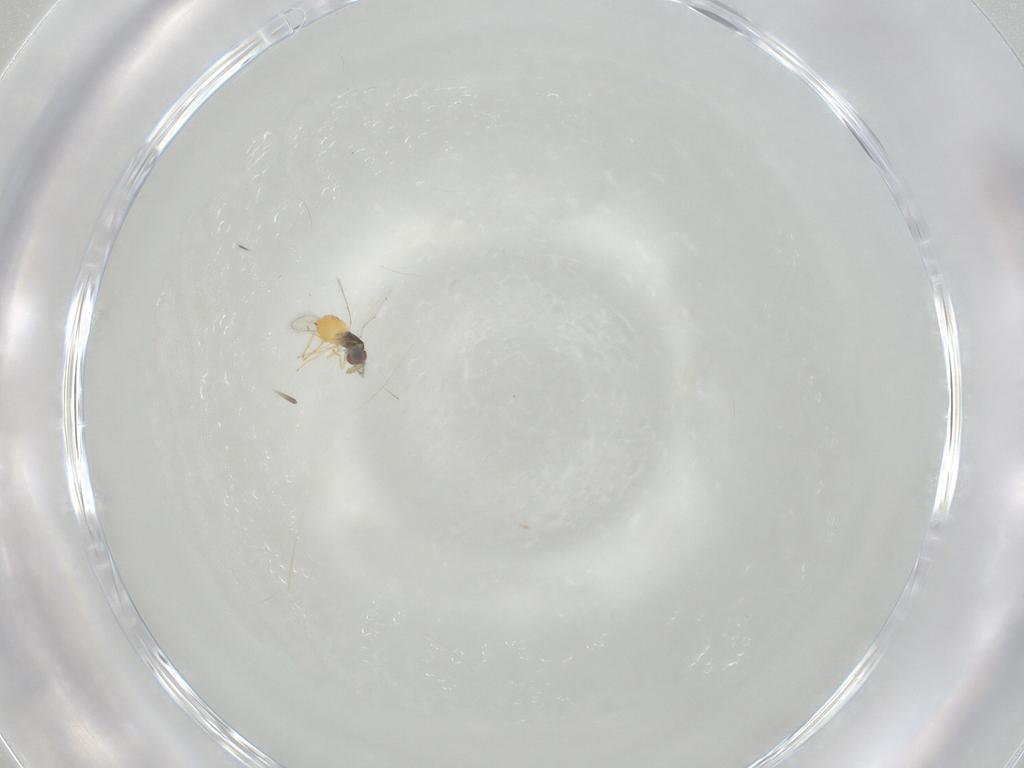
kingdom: Animalia
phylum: Arthropoda
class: Insecta
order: Hymenoptera
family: Eulophidae
